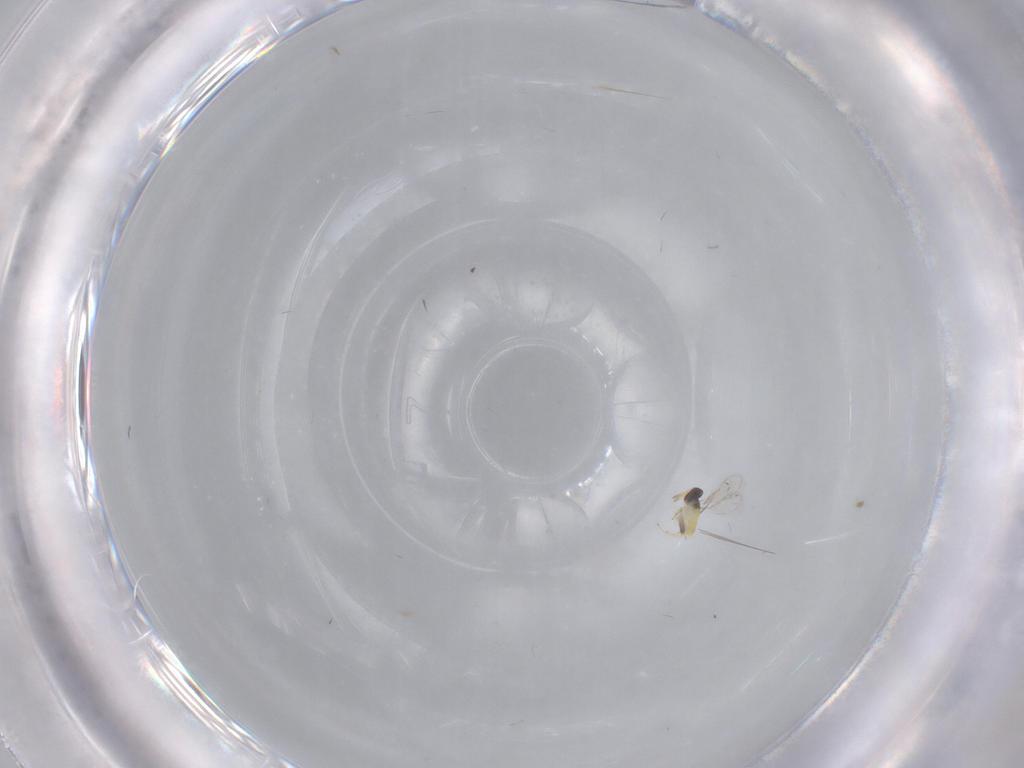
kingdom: Animalia
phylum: Arthropoda
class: Insecta
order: Hymenoptera
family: Aphelinidae
